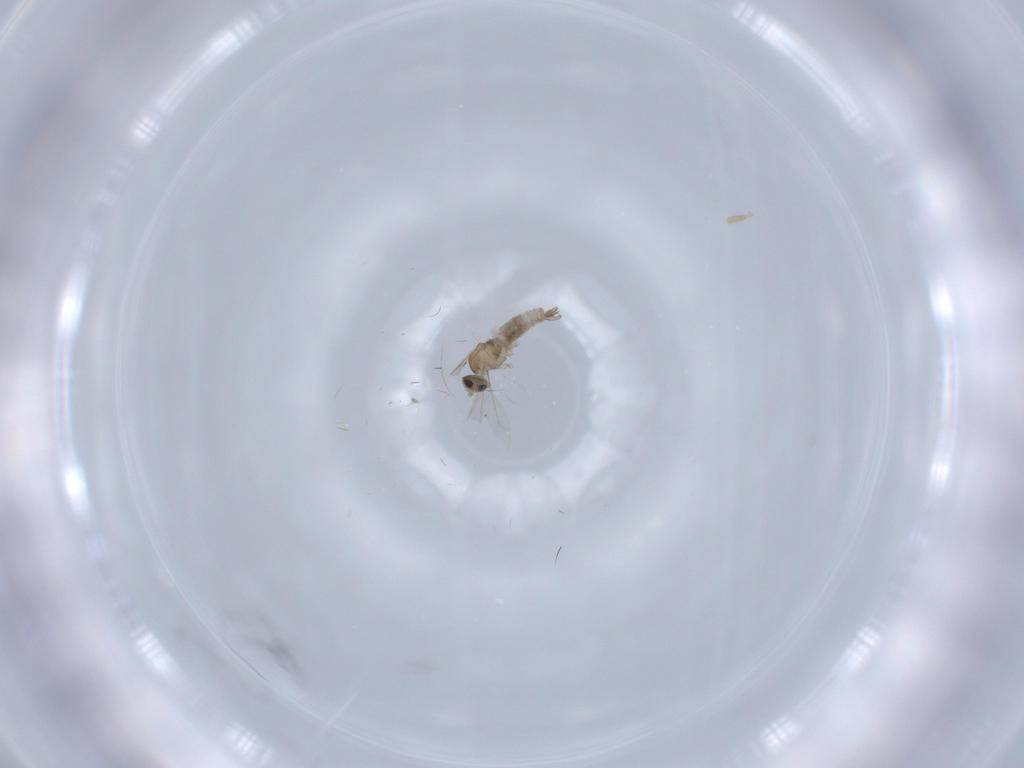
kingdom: Animalia
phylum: Arthropoda
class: Insecta
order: Diptera
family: Cecidomyiidae
